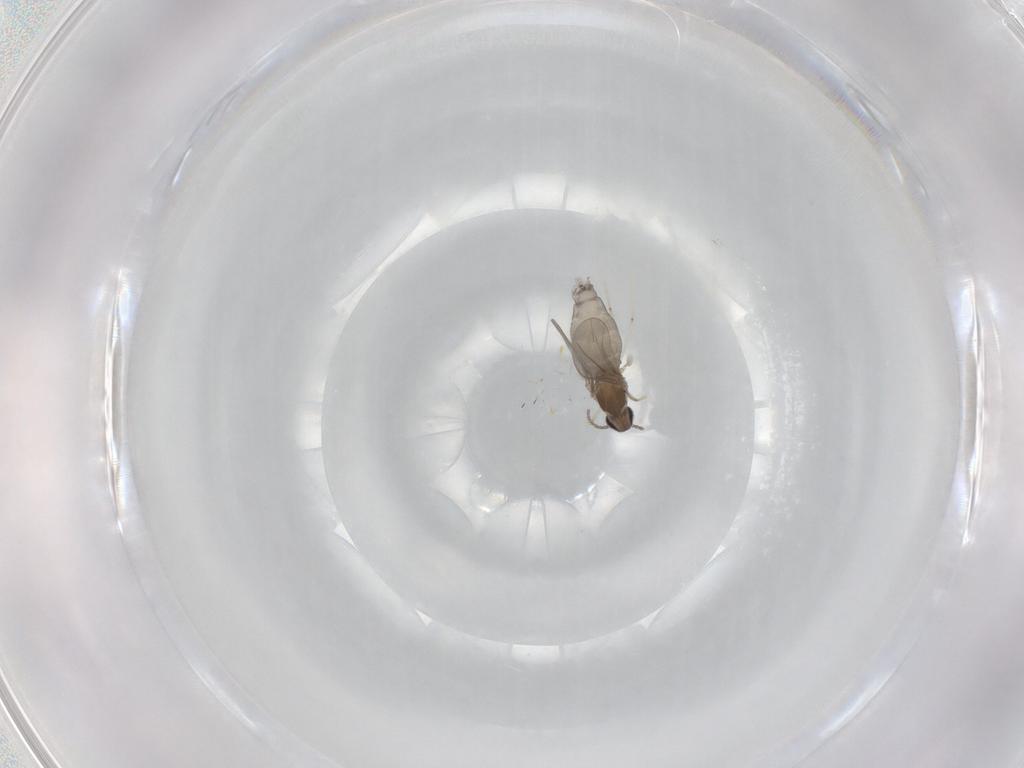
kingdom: Animalia
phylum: Arthropoda
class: Insecta
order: Diptera
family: Cecidomyiidae
